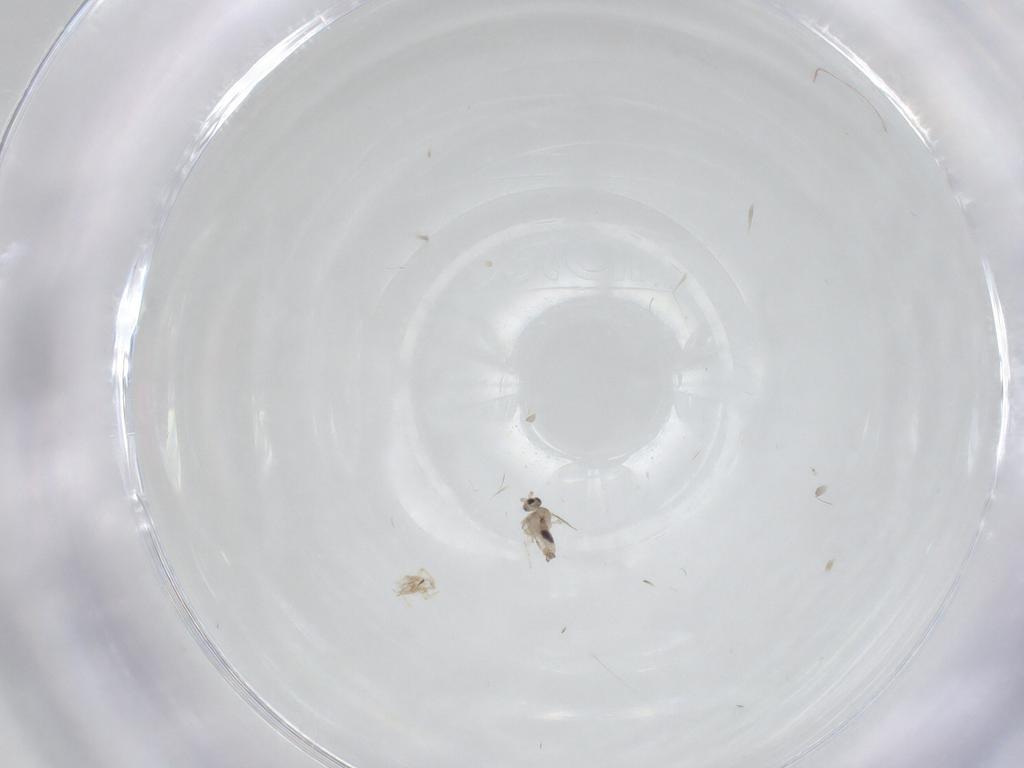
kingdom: Animalia
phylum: Arthropoda
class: Insecta
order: Diptera
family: Cecidomyiidae
